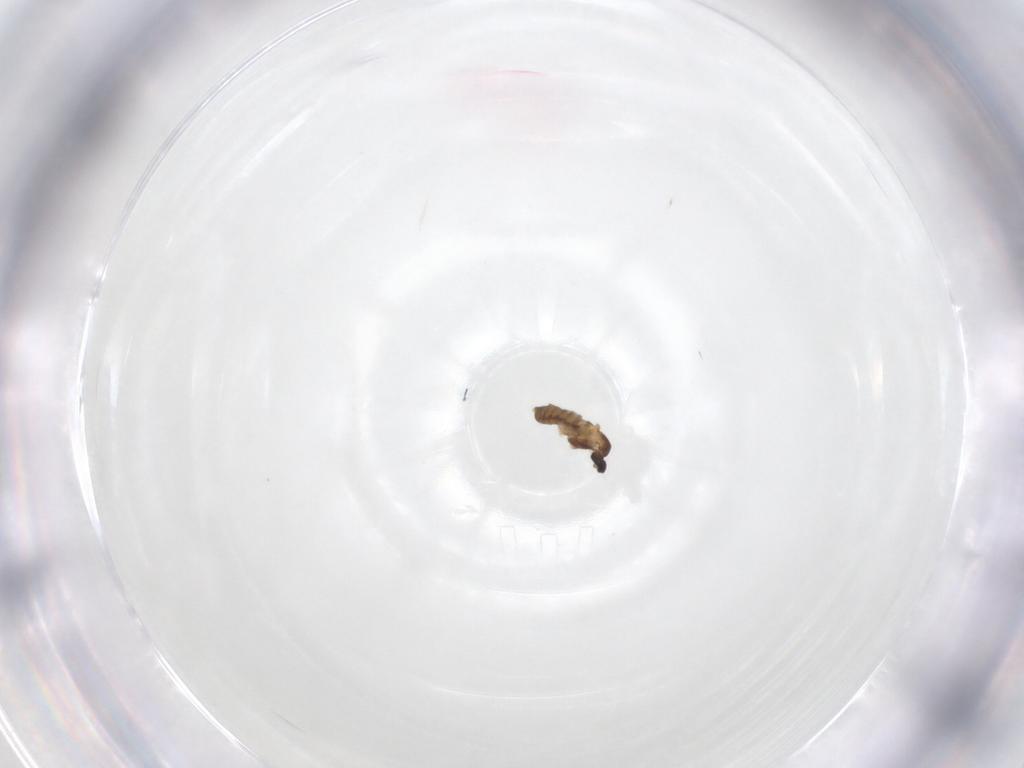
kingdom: Animalia
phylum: Arthropoda
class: Insecta
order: Diptera
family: Cecidomyiidae
